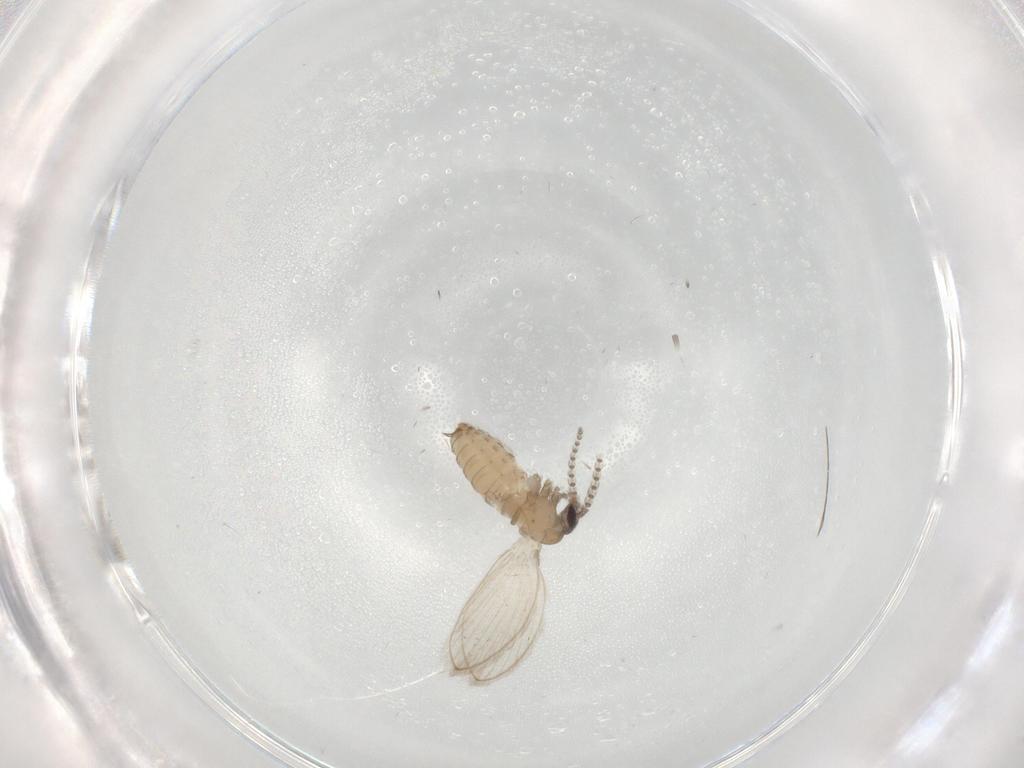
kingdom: Animalia
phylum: Arthropoda
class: Insecta
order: Diptera
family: Psychodidae
